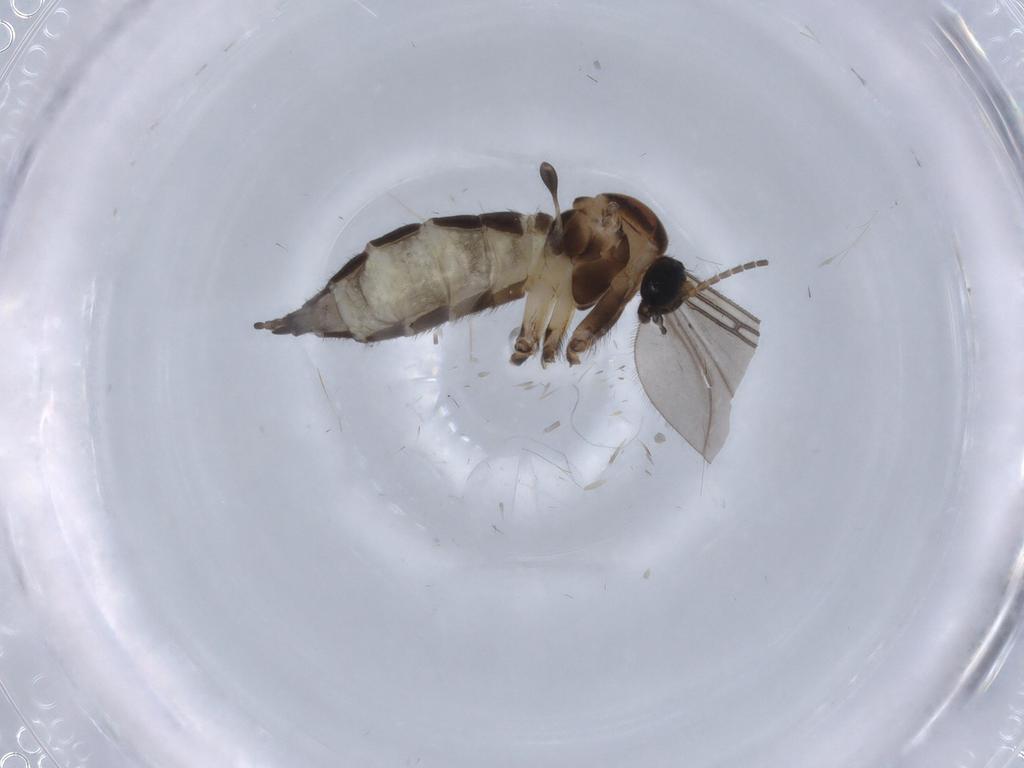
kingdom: Animalia
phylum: Arthropoda
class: Insecta
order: Diptera
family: Sciaridae
